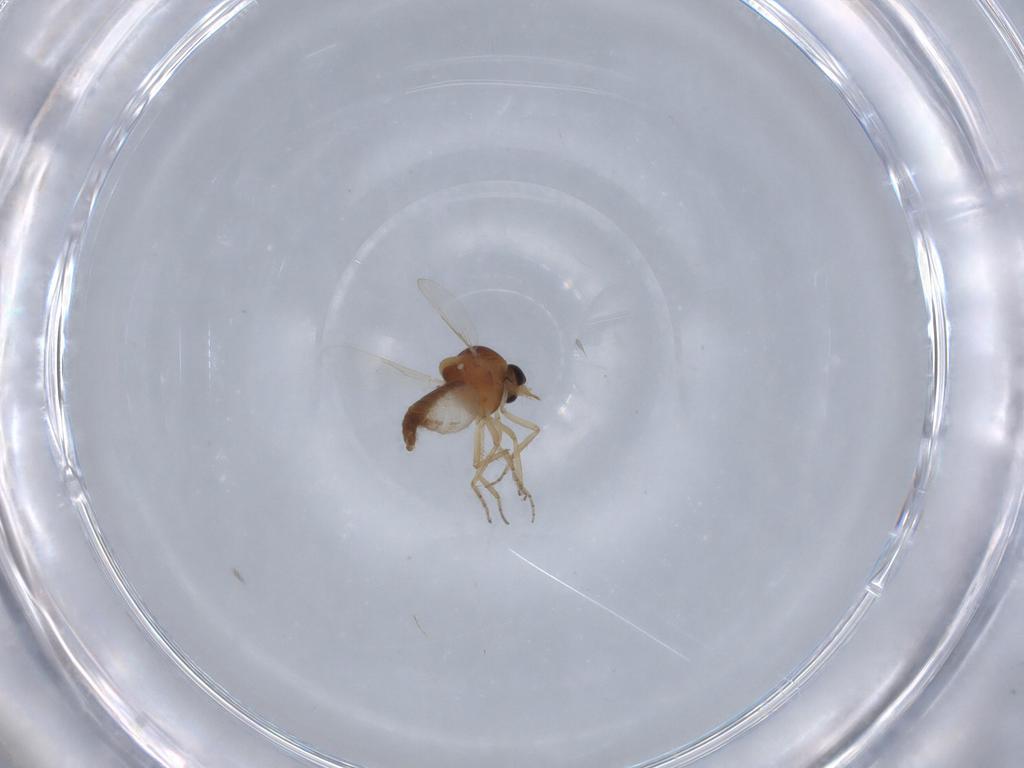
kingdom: Animalia
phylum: Arthropoda
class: Insecta
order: Diptera
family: Ceratopogonidae
